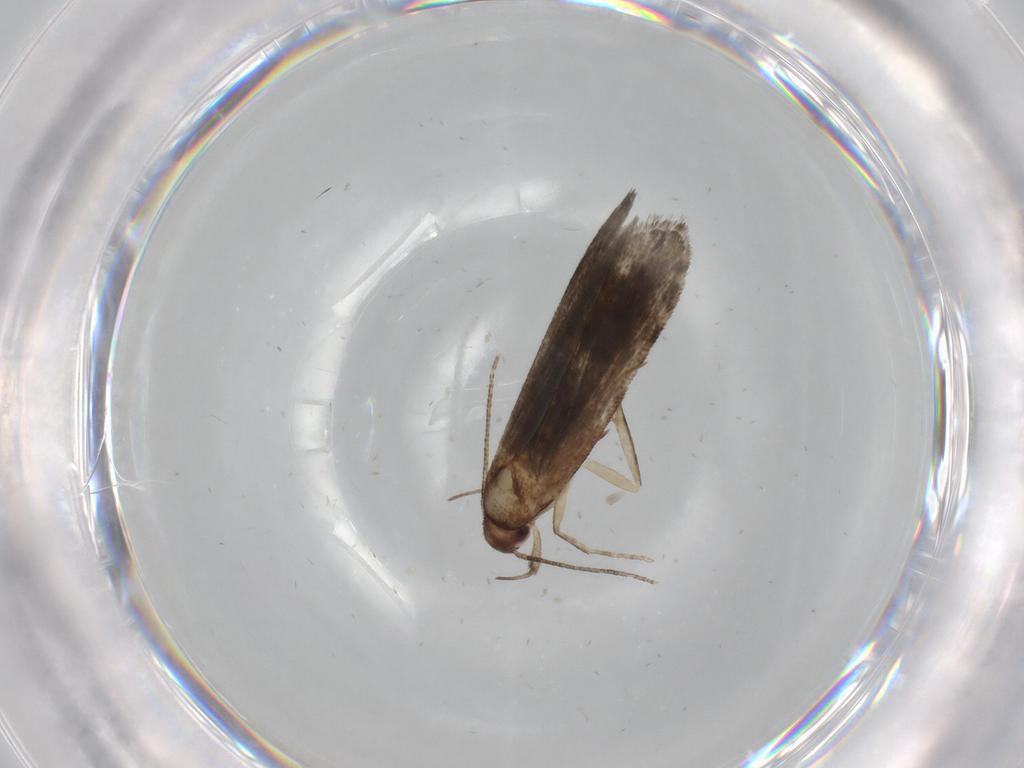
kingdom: Animalia
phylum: Arthropoda
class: Insecta
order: Lepidoptera
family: Gelechiidae
